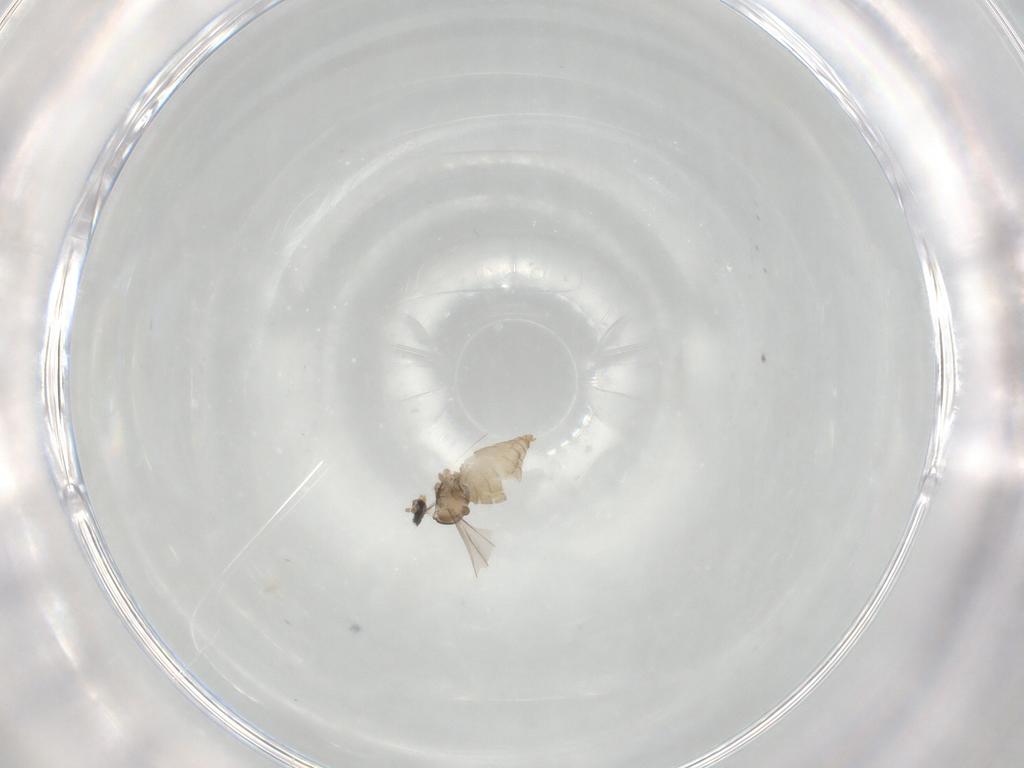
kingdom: Animalia
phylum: Arthropoda
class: Insecta
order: Diptera
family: Cecidomyiidae
